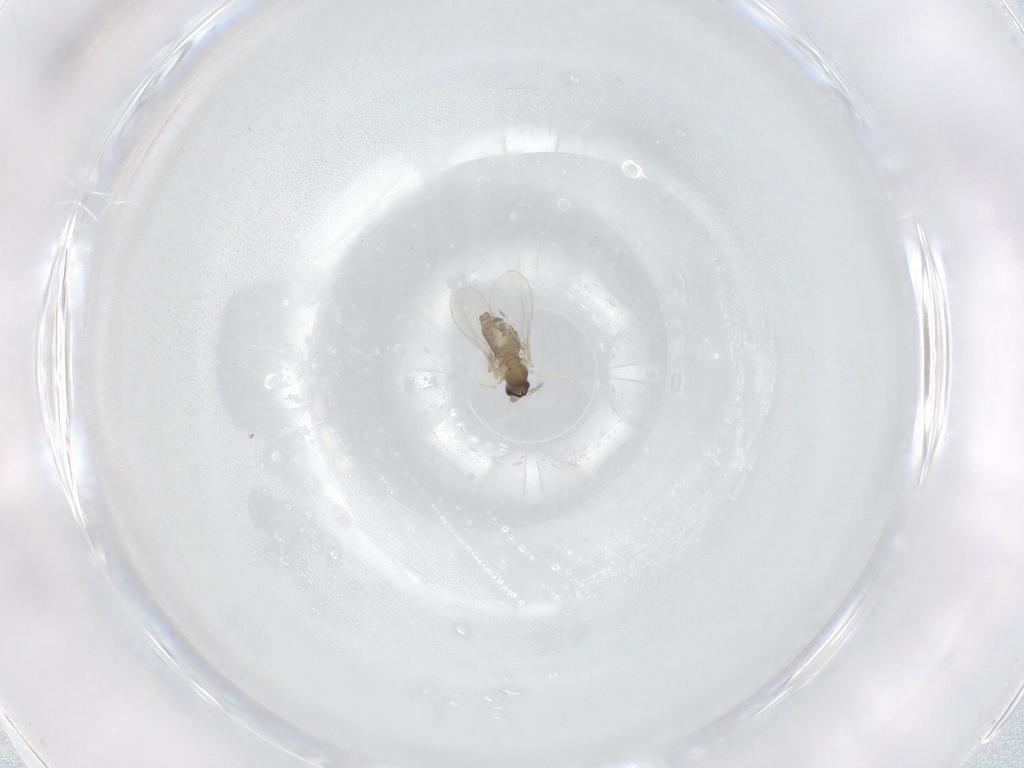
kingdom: Animalia
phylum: Arthropoda
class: Insecta
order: Diptera
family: Cecidomyiidae
